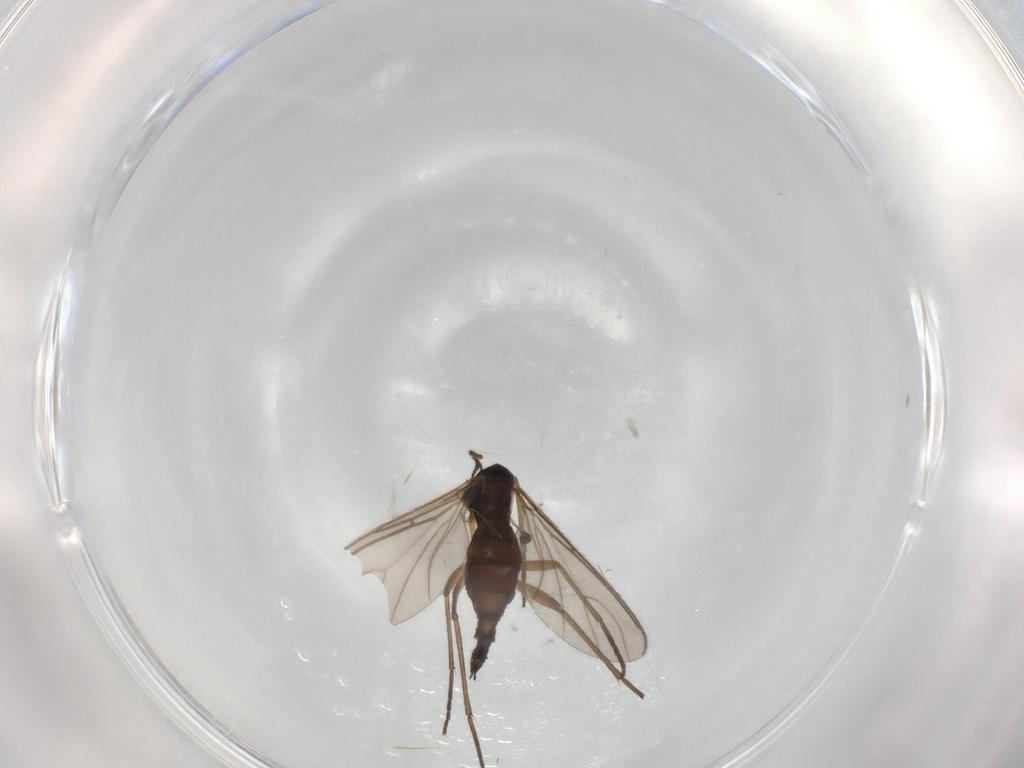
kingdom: Animalia
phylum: Arthropoda
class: Insecta
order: Diptera
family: Sciaridae
